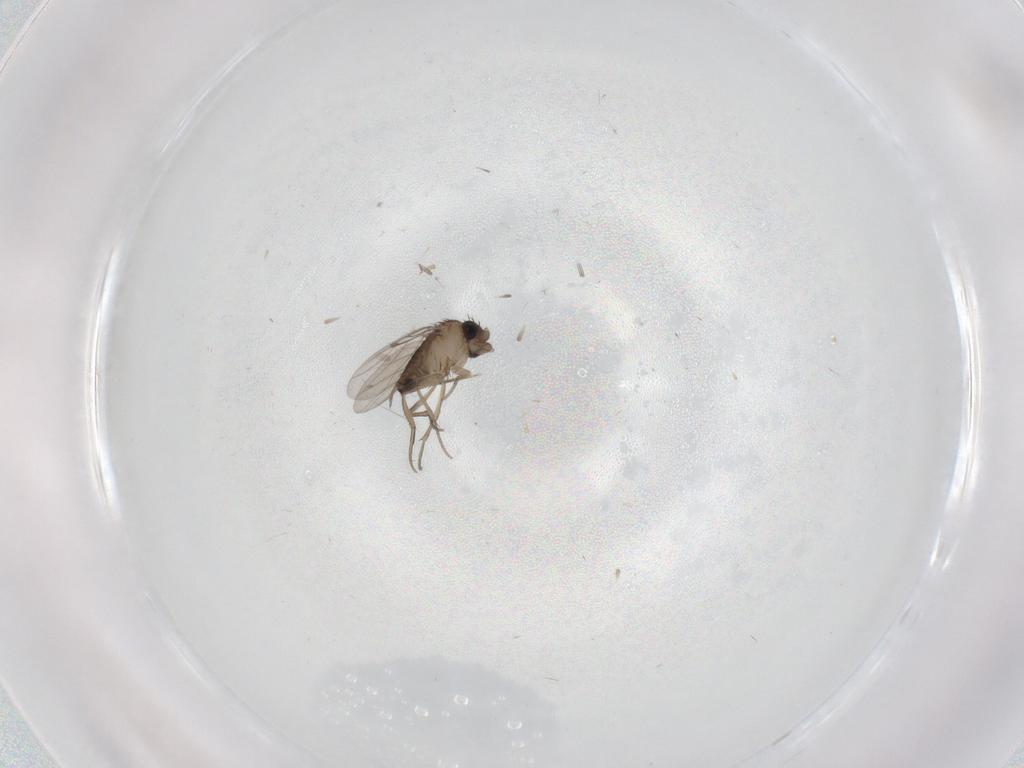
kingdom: Animalia
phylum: Arthropoda
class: Insecta
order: Diptera
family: Phoridae
